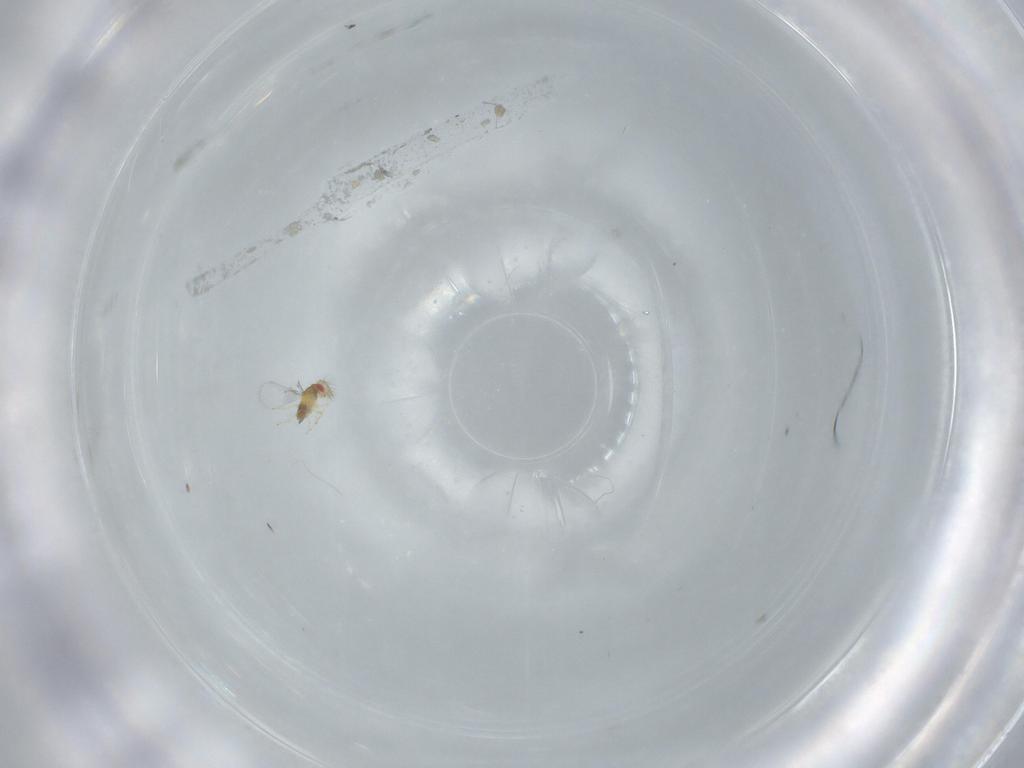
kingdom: Animalia
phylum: Arthropoda
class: Insecta
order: Hymenoptera
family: Trichogrammatidae
